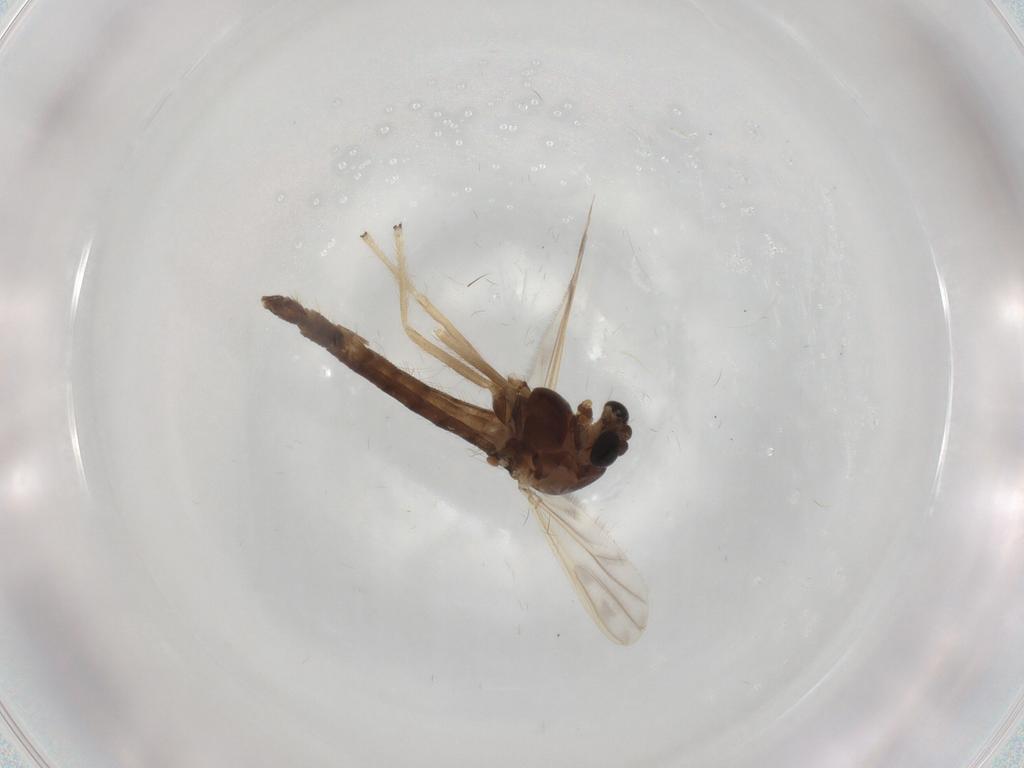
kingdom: Animalia
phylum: Arthropoda
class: Insecta
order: Diptera
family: Chironomidae
